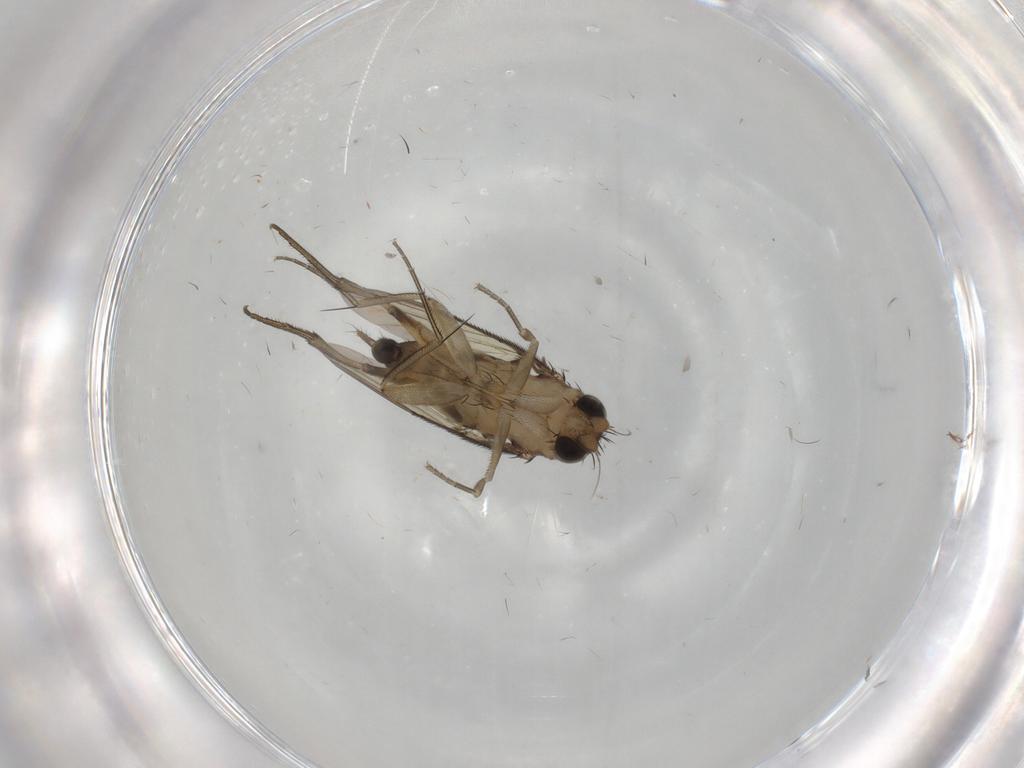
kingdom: Animalia
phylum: Arthropoda
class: Insecta
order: Diptera
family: Phoridae
